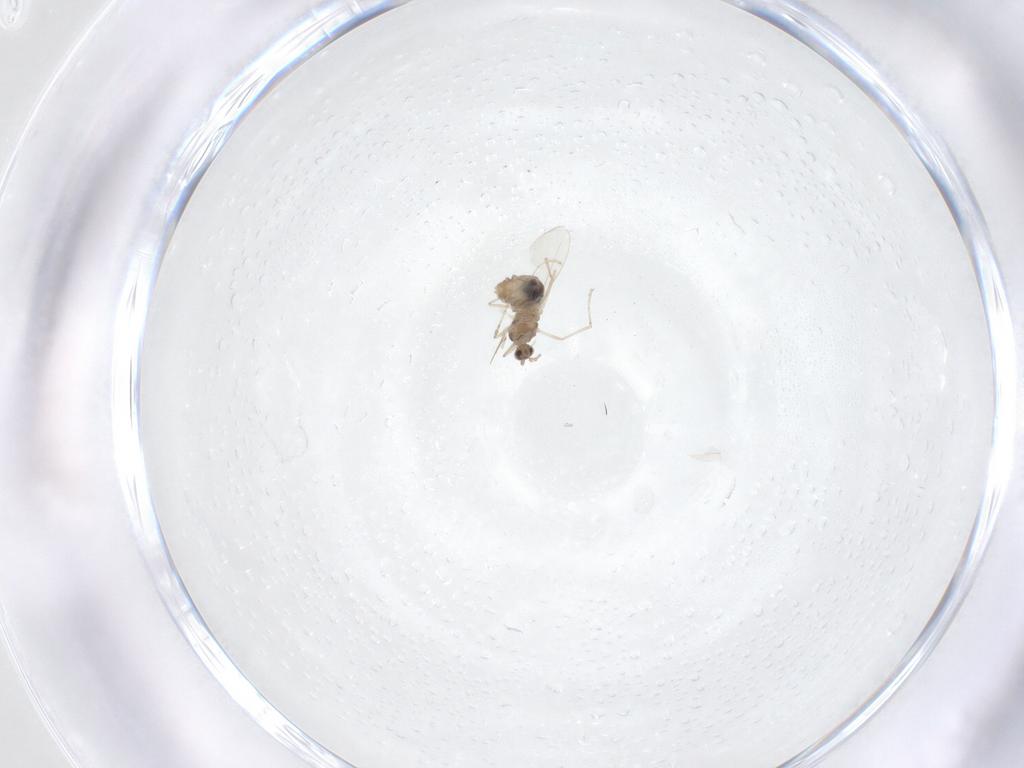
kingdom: Animalia
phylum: Arthropoda
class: Insecta
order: Diptera
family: Cecidomyiidae
